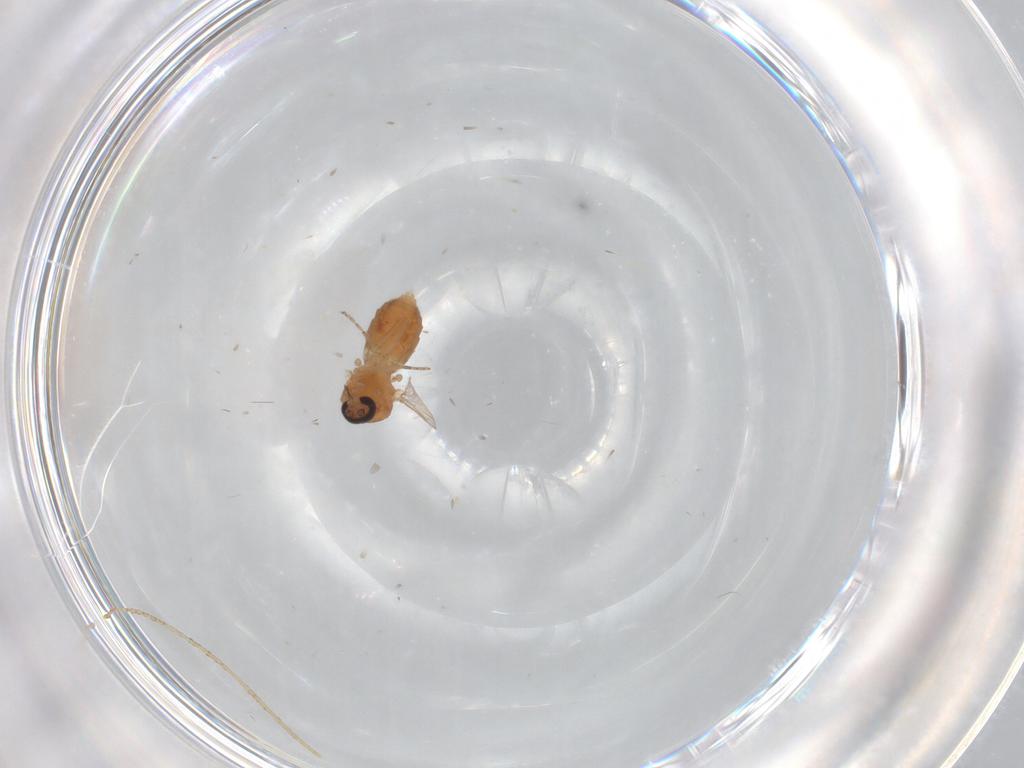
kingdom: Animalia
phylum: Arthropoda
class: Insecta
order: Diptera
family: Ceratopogonidae
